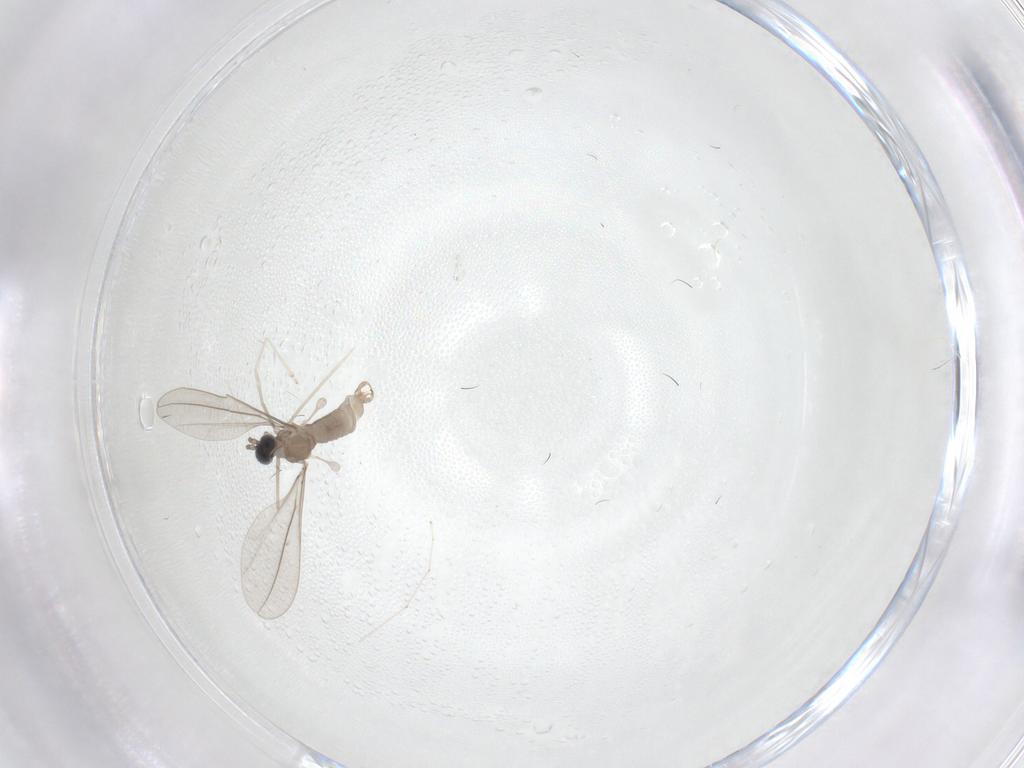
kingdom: Animalia
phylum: Arthropoda
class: Insecta
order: Diptera
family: Cecidomyiidae
